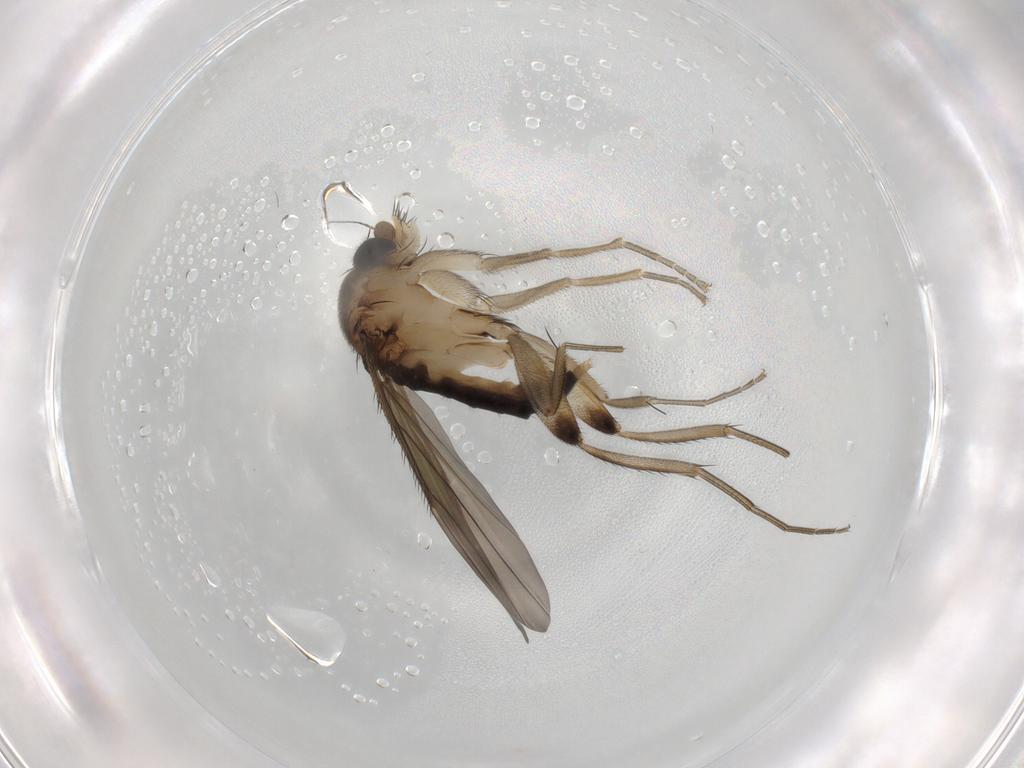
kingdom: Animalia
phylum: Arthropoda
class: Insecta
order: Diptera
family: Phoridae
